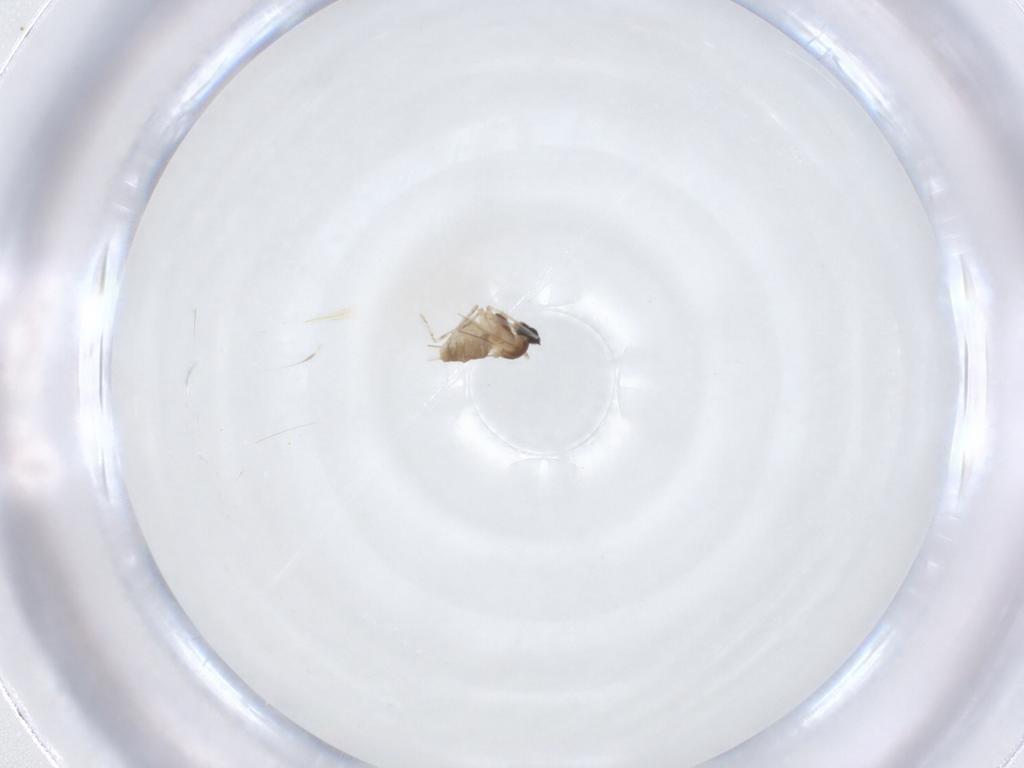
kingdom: Animalia
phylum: Arthropoda
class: Insecta
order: Diptera
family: Cecidomyiidae
